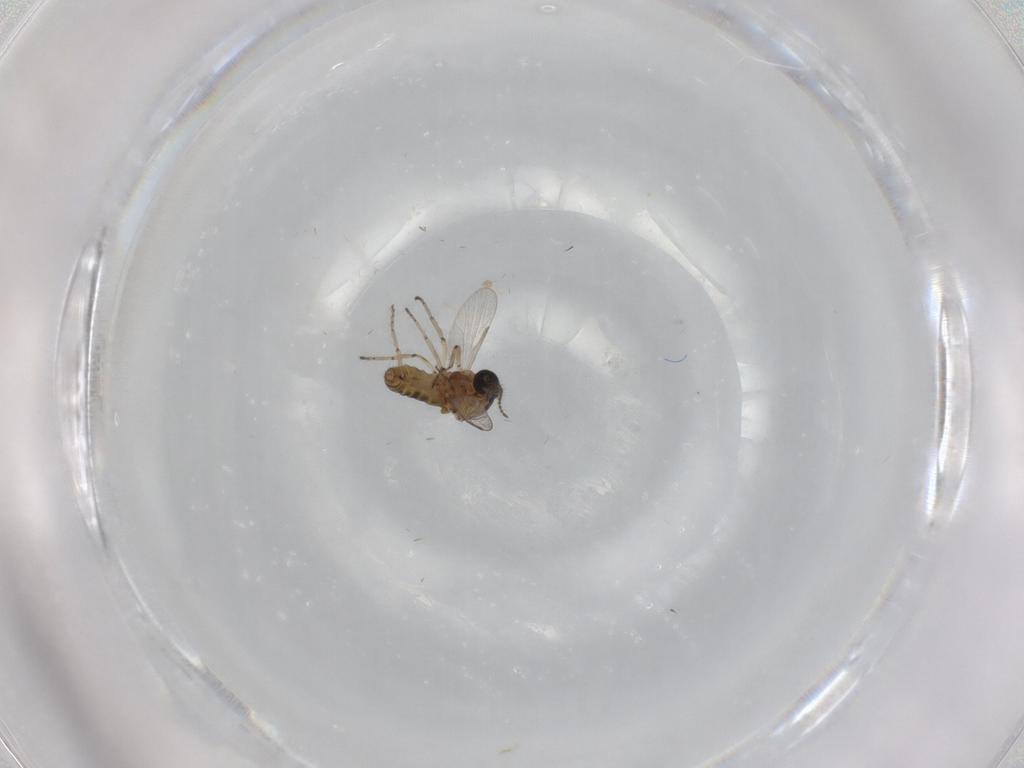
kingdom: Animalia
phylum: Arthropoda
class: Insecta
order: Diptera
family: Ceratopogonidae
